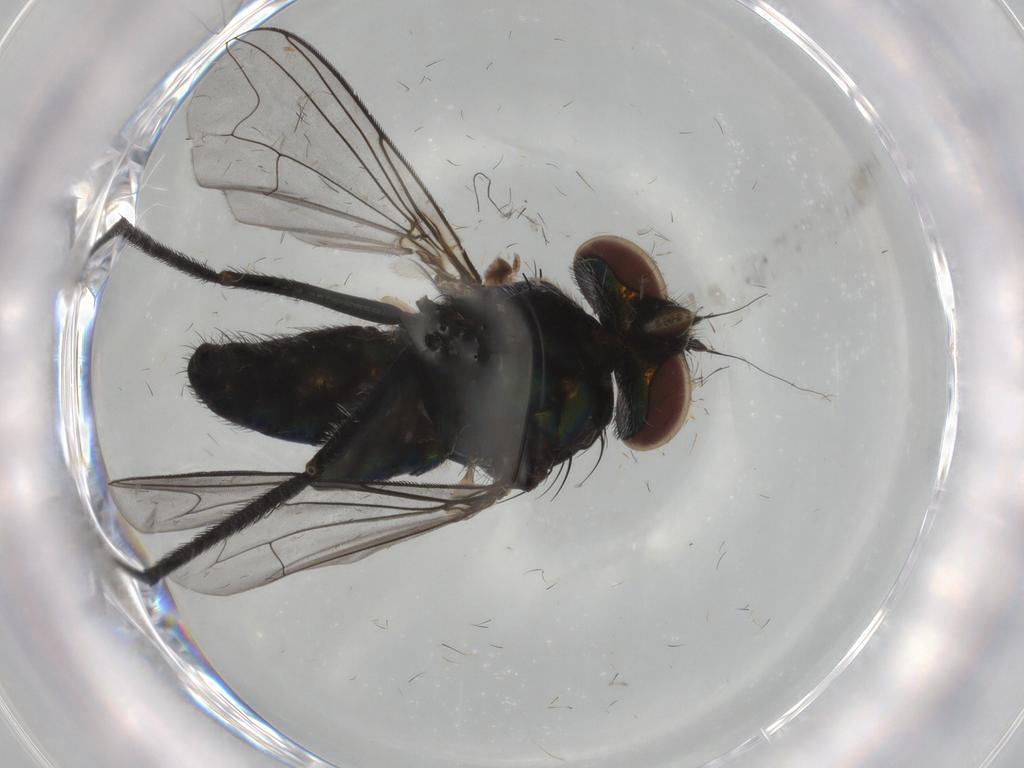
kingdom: Animalia
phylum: Arthropoda
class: Insecta
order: Diptera
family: Dolichopodidae
